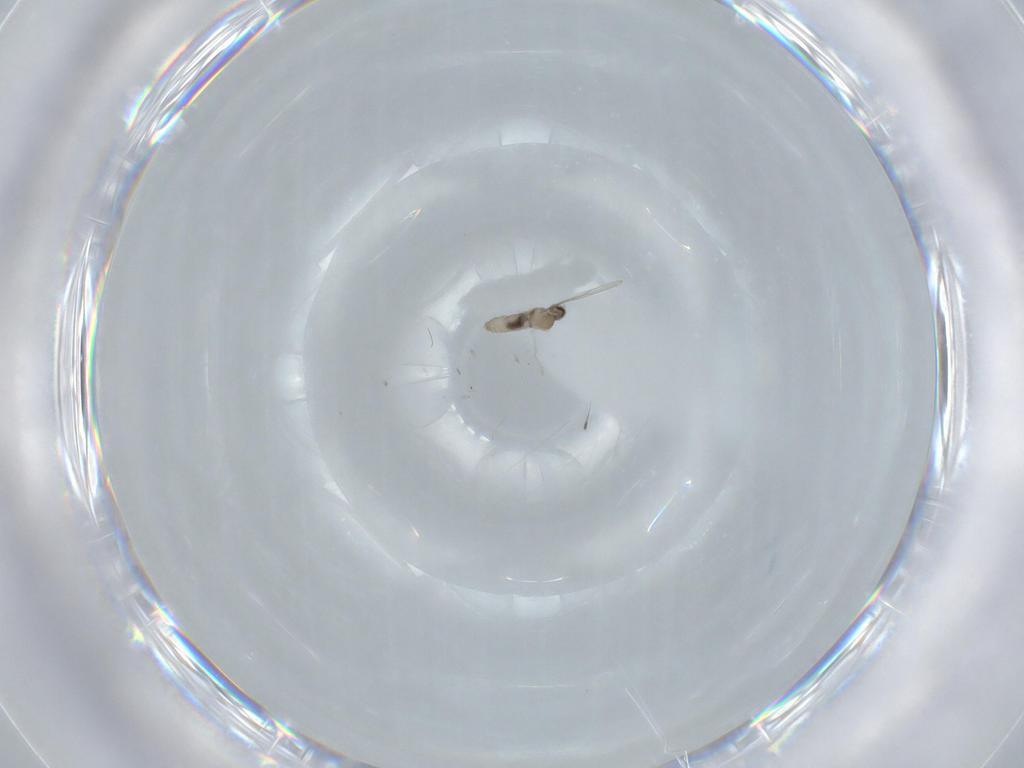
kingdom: Animalia
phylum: Arthropoda
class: Insecta
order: Diptera
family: Cecidomyiidae
